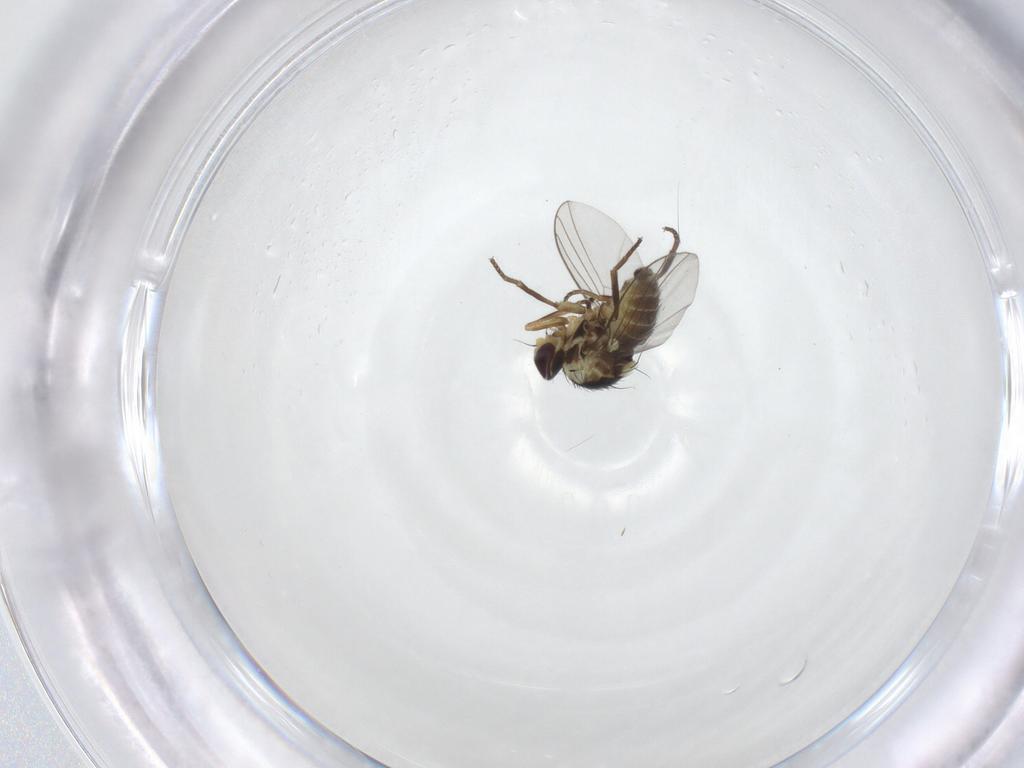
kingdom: Animalia
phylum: Arthropoda
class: Insecta
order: Diptera
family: Agromyzidae
